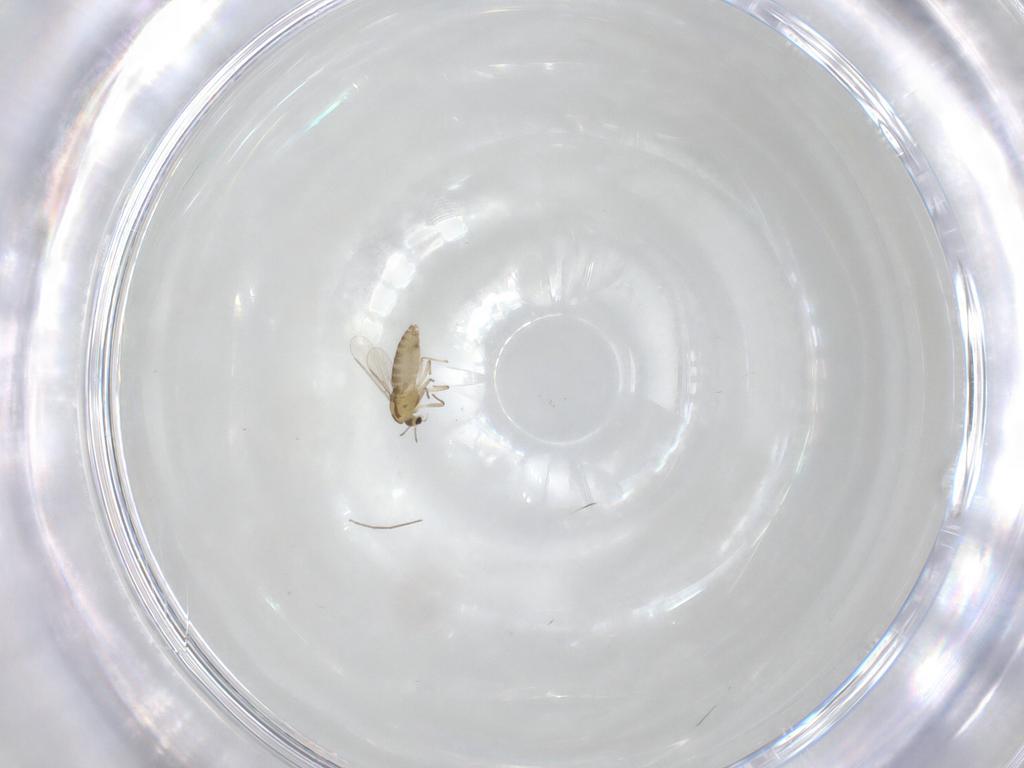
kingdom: Animalia
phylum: Arthropoda
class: Insecta
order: Diptera
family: Chironomidae
